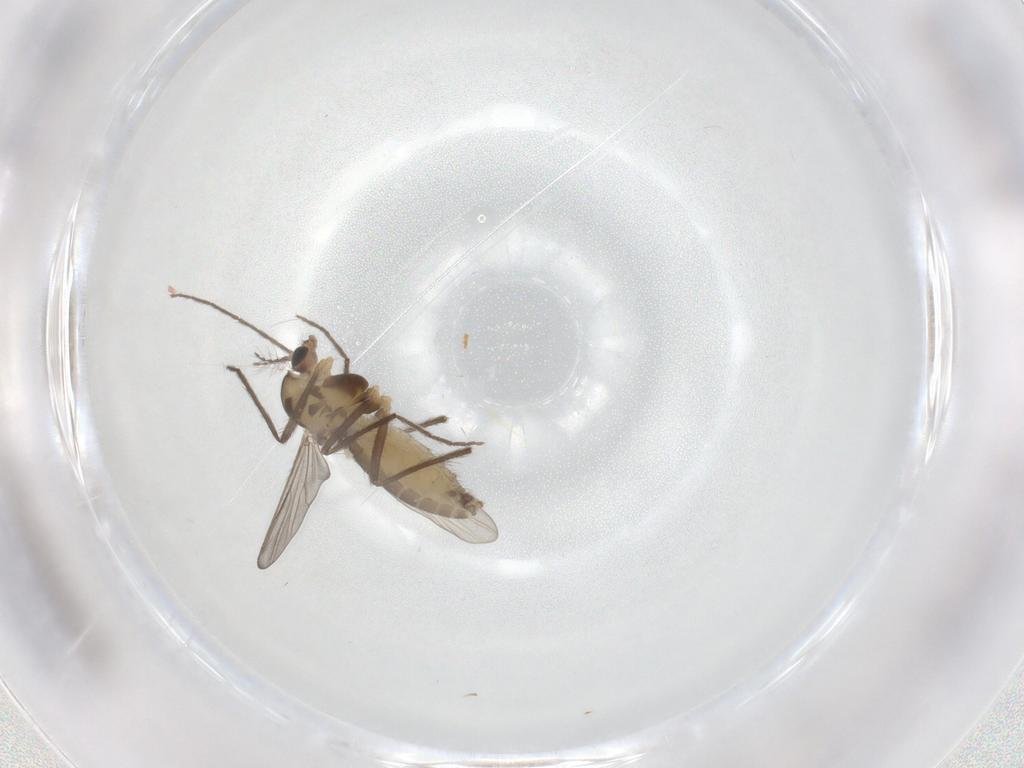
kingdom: Animalia
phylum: Arthropoda
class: Insecta
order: Diptera
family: Chironomidae
